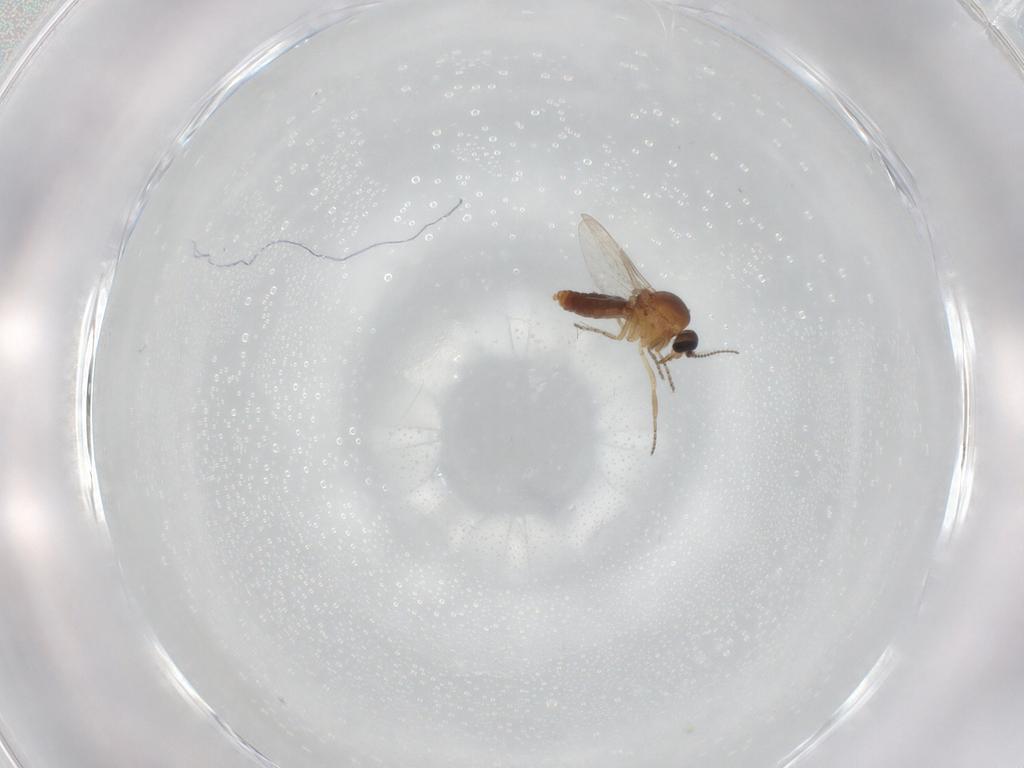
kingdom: Animalia
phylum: Arthropoda
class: Insecta
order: Diptera
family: Ceratopogonidae
